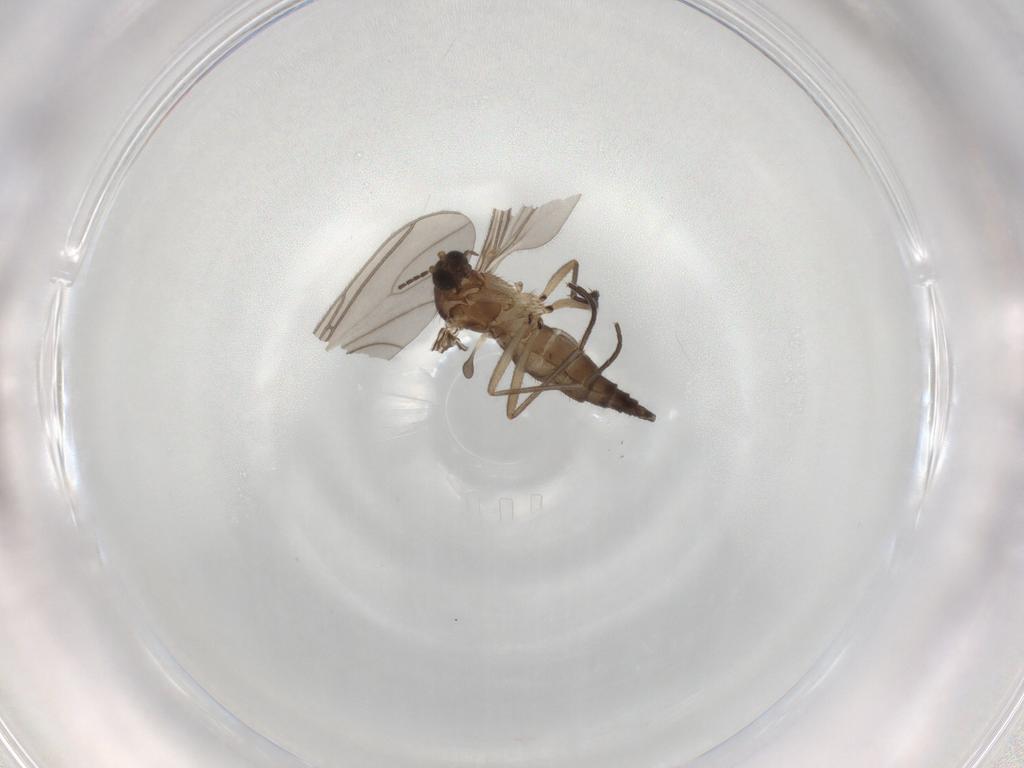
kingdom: Animalia
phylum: Arthropoda
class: Insecta
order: Diptera
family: Sciaridae
